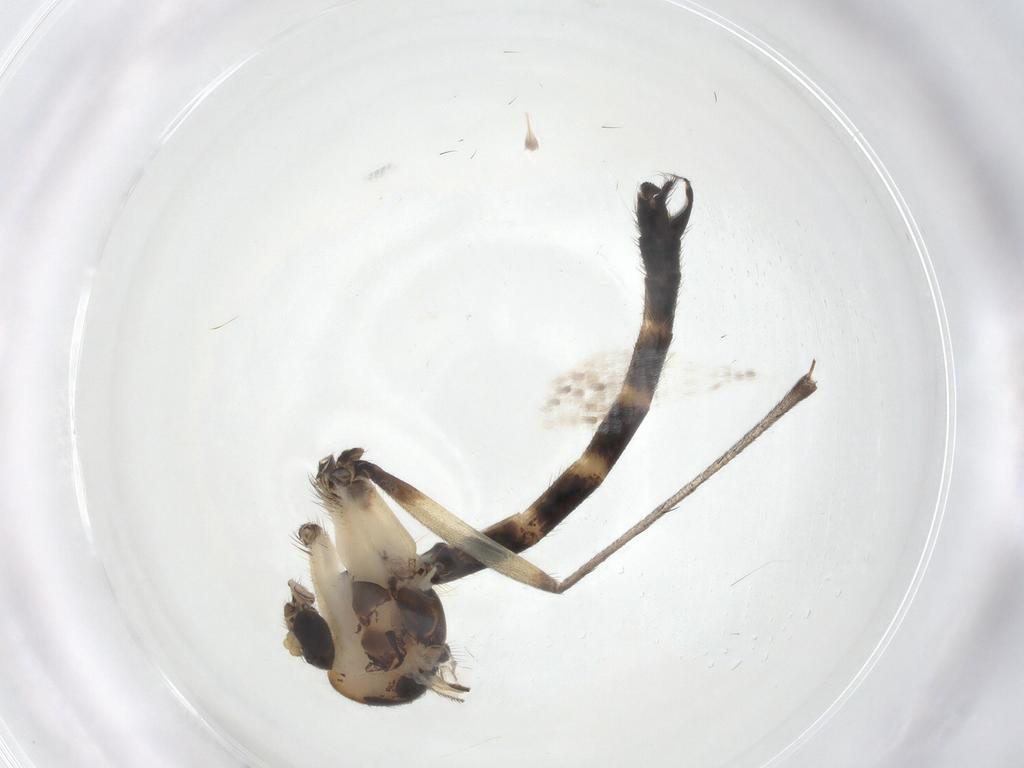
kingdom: Animalia
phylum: Arthropoda
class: Insecta
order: Diptera
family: Mycetophilidae
